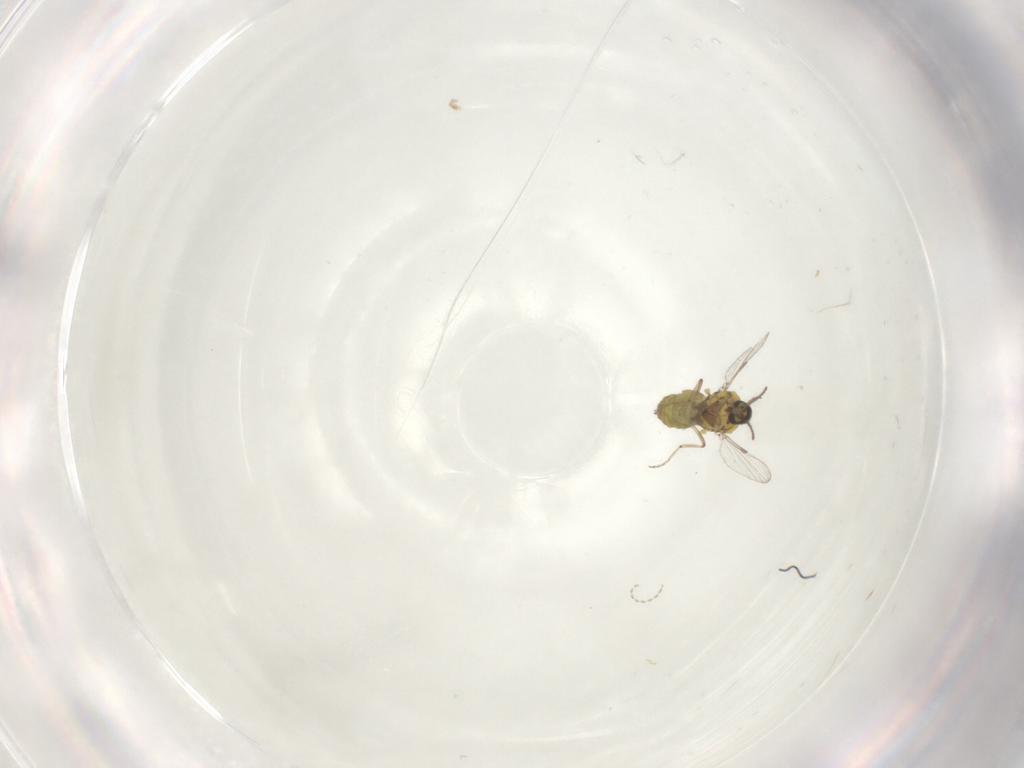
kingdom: Animalia
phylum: Arthropoda
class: Insecta
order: Diptera
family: Ceratopogonidae
